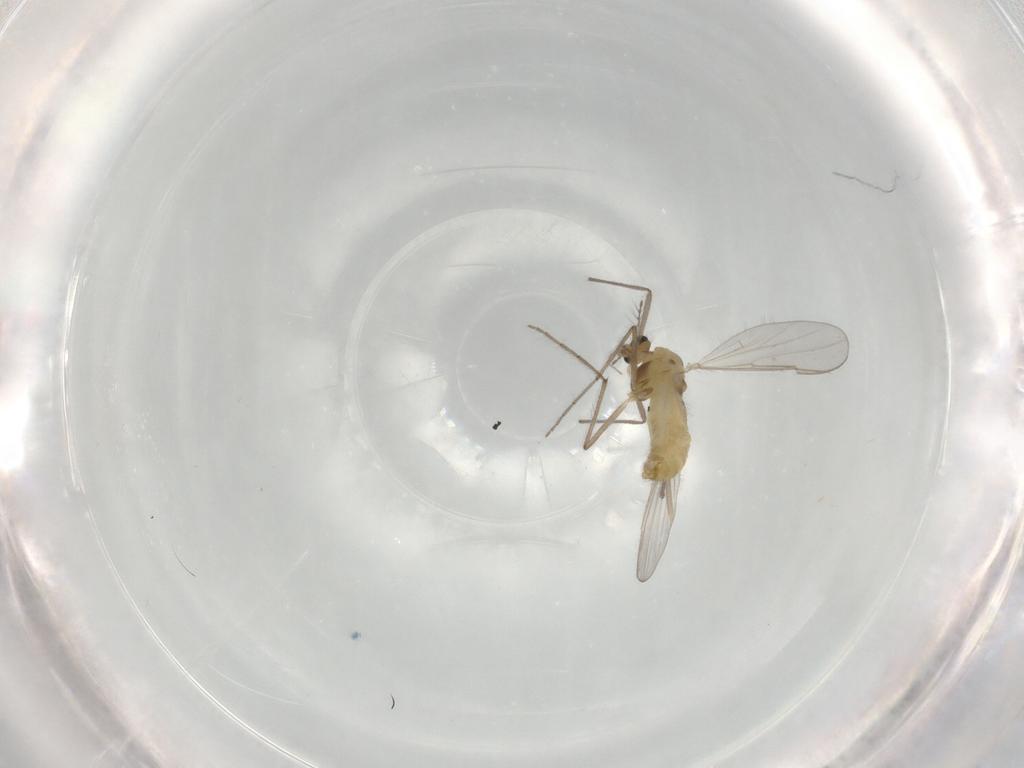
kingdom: Animalia
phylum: Arthropoda
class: Insecta
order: Diptera
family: Chironomidae
